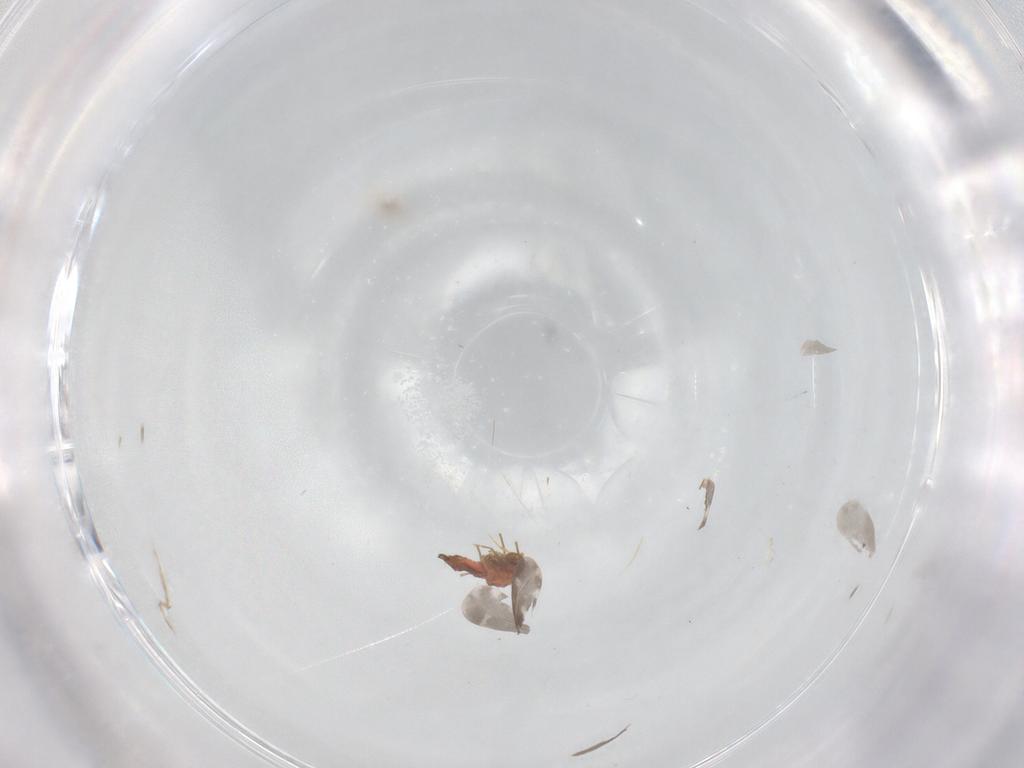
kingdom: Animalia
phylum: Arthropoda
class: Insecta
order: Hemiptera
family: Aleyrodidae
